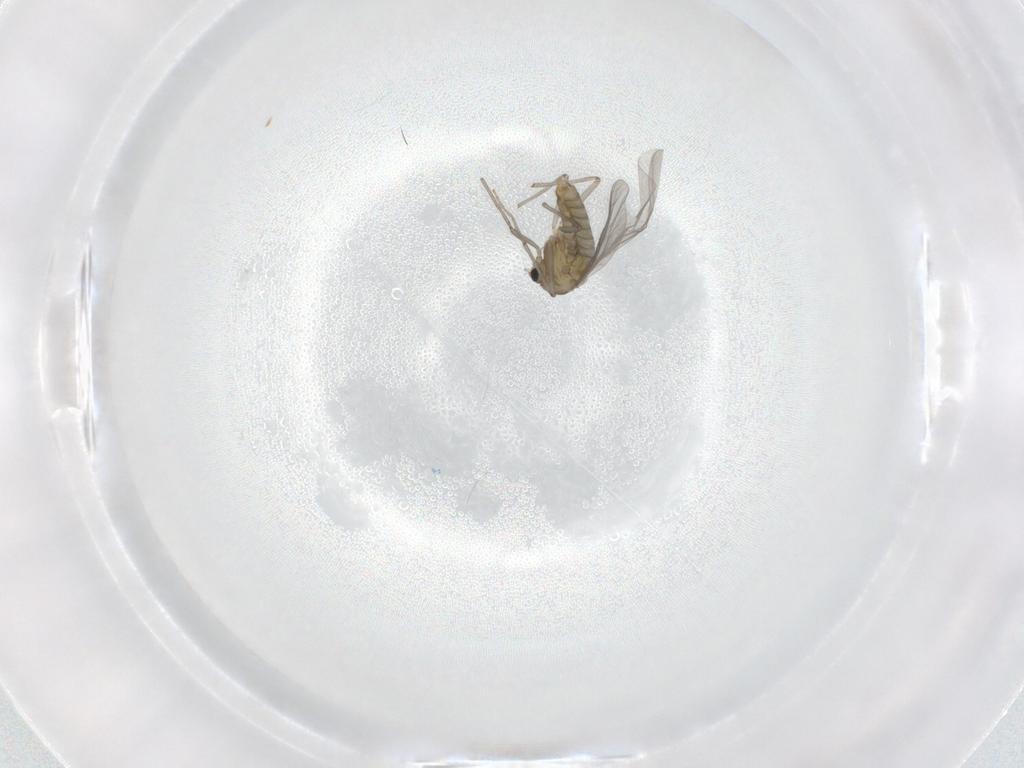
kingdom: Animalia
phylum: Arthropoda
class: Insecta
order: Diptera
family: Chironomidae
